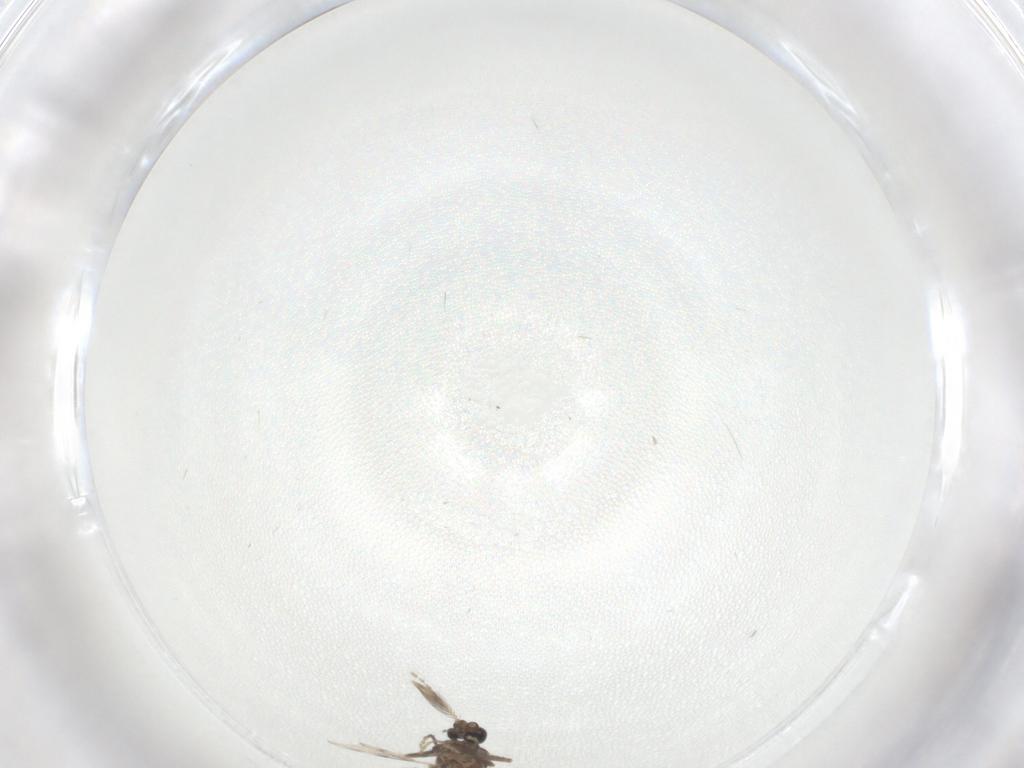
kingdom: Animalia
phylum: Arthropoda
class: Insecta
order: Diptera
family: Ceratopogonidae
